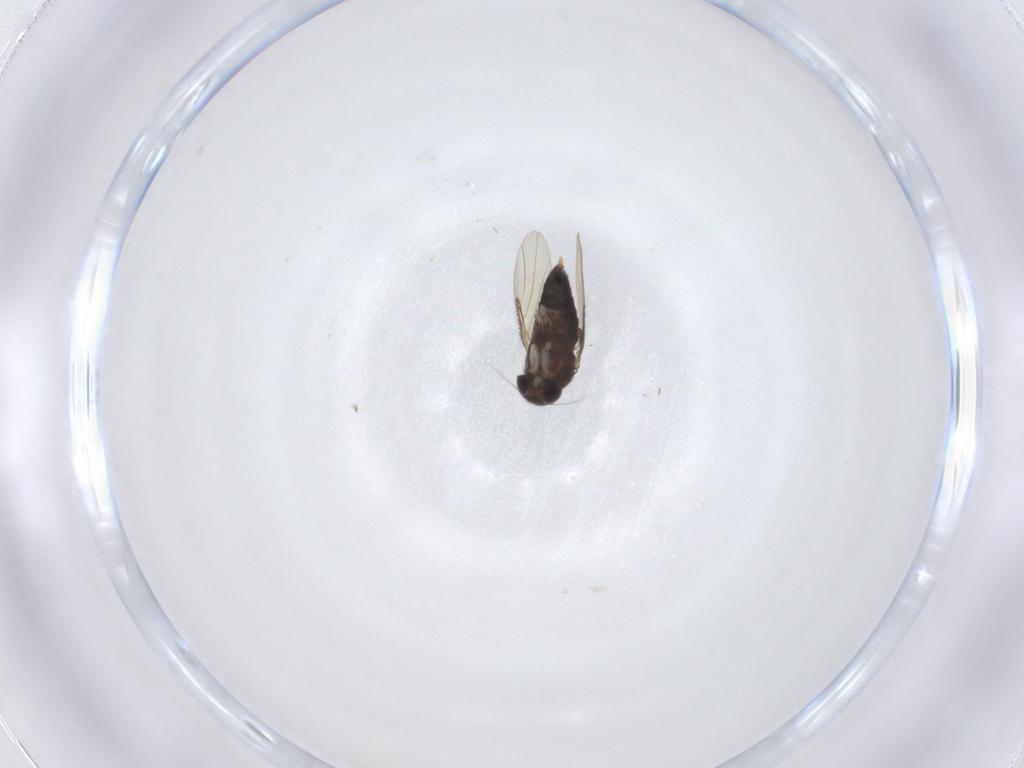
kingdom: Animalia
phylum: Arthropoda
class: Insecta
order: Diptera
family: Phoridae
